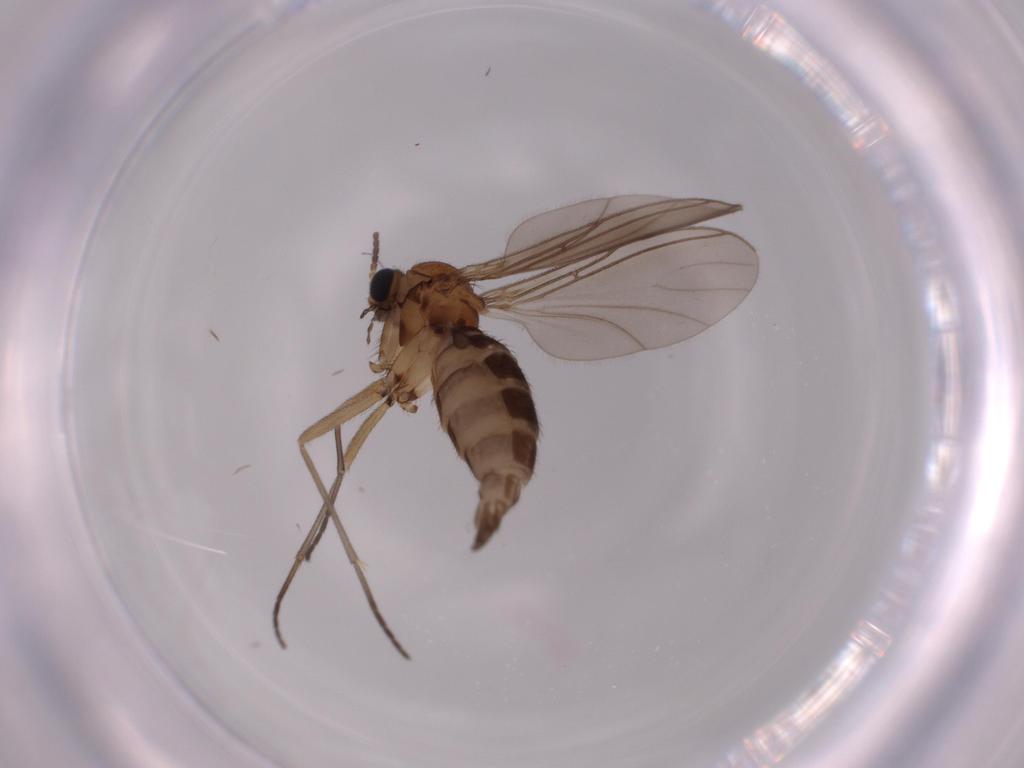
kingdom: Animalia
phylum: Arthropoda
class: Insecta
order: Diptera
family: Sciaridae
